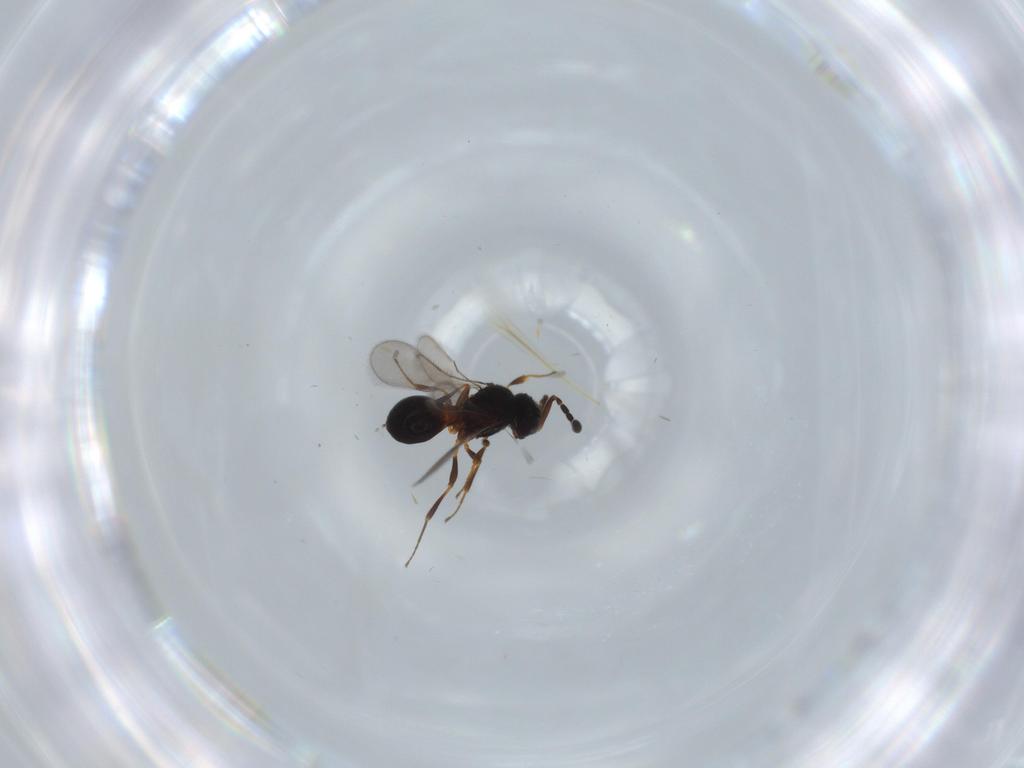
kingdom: Animalia
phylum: Arthropoda
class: Insecta
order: Hymenoptera
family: Scelionidae
